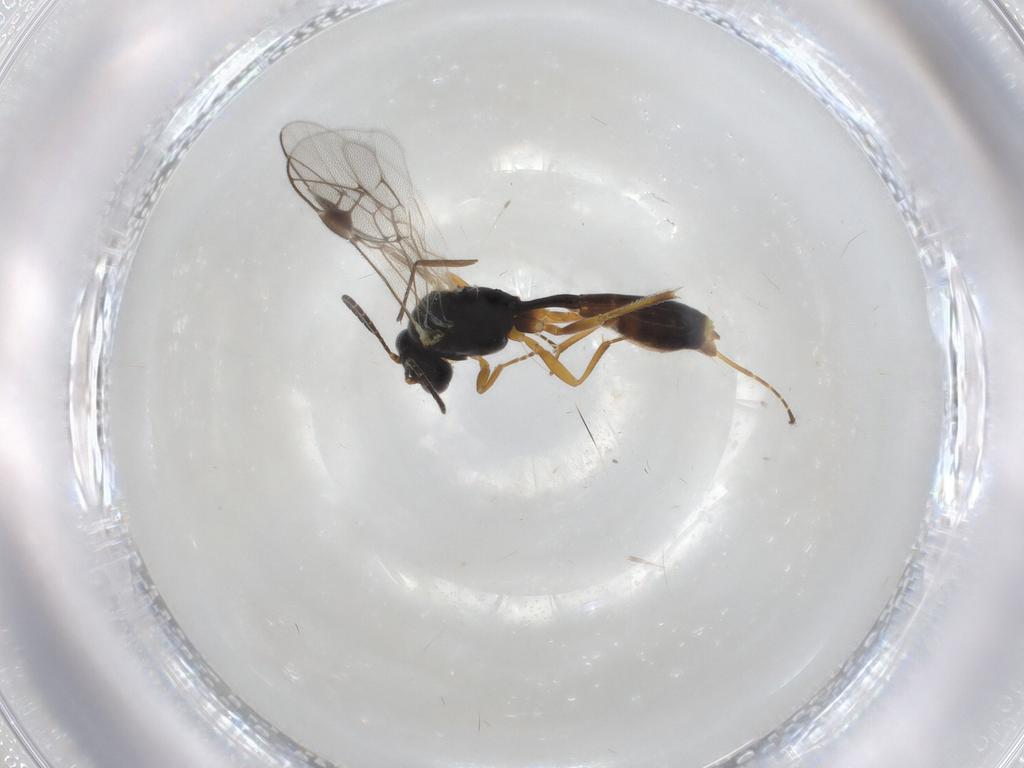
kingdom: Animalia
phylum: Arthropoda
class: Insecta
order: Hymenoptera
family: Ichneumonidae
